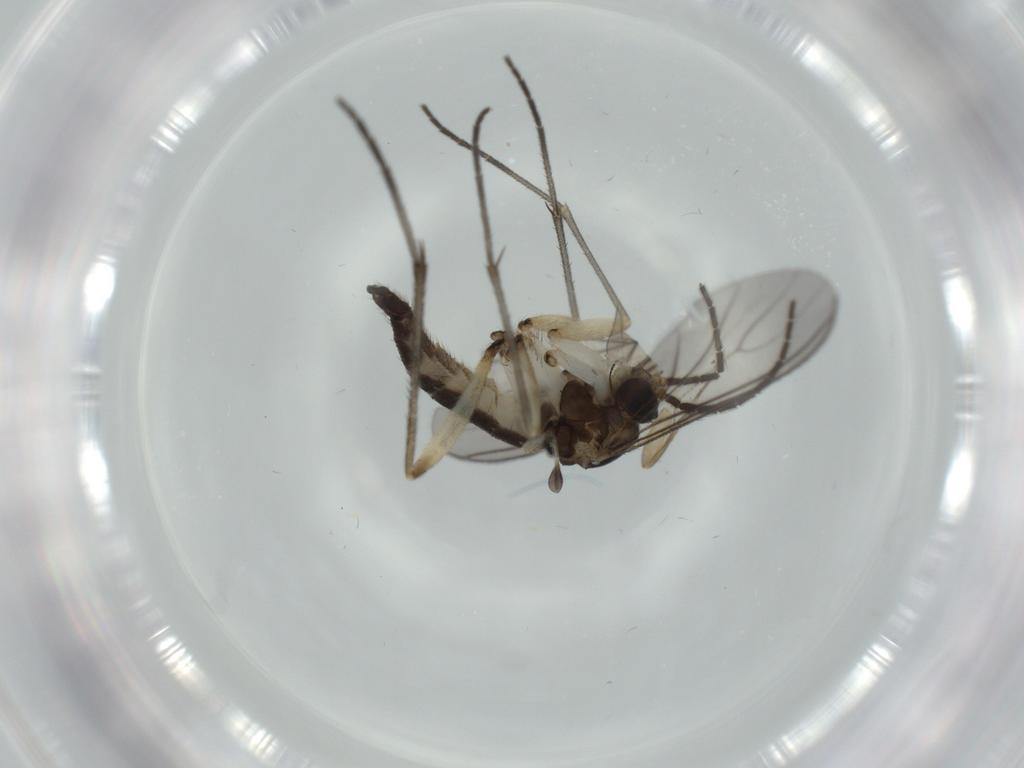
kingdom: Animalia
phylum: Arthropoda
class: Insecta
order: Diptera
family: Sciaridae
